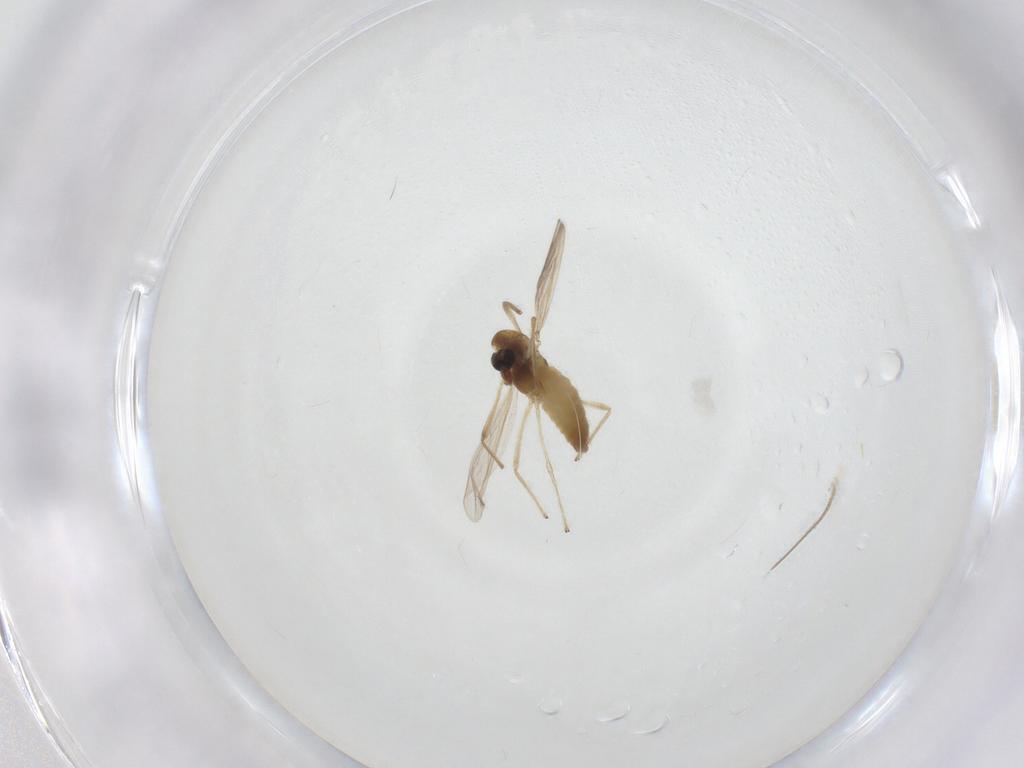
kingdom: Animalia
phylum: Arthropoda
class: Insecta
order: Diptera
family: Chironomidae
